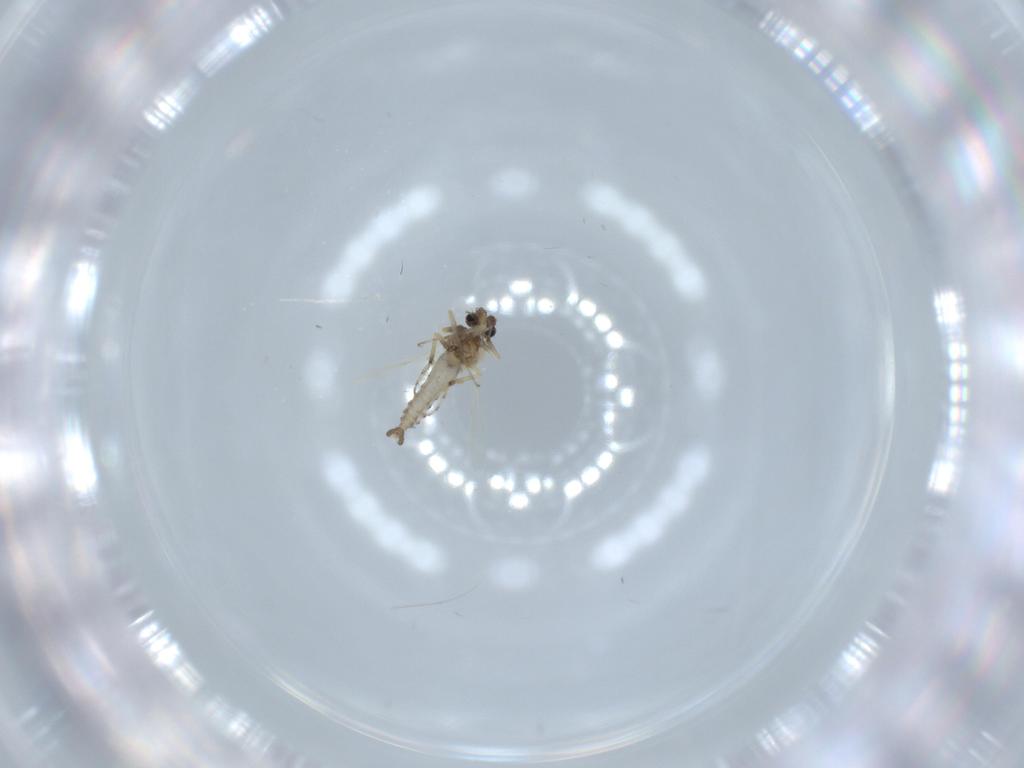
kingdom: Animalia
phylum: Arthropoda
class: Insecta
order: Diptera
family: Ceratopogonidae
